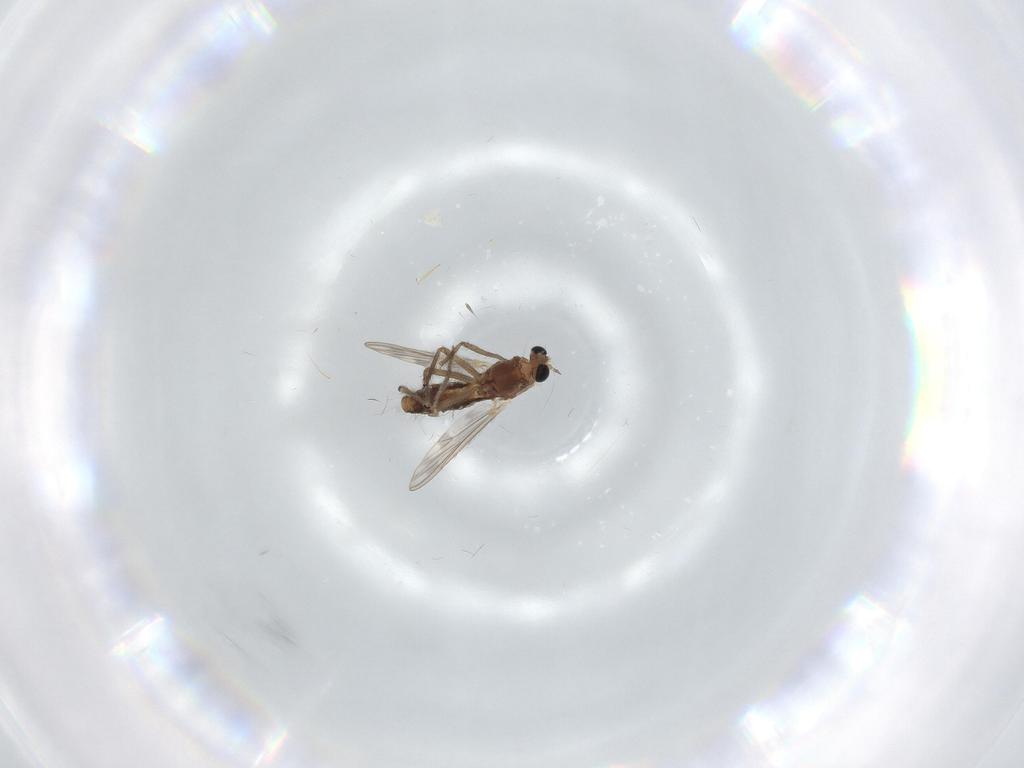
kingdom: Animalia
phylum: Arthropoda
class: Insecta
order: Diptera
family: Chironomidae
